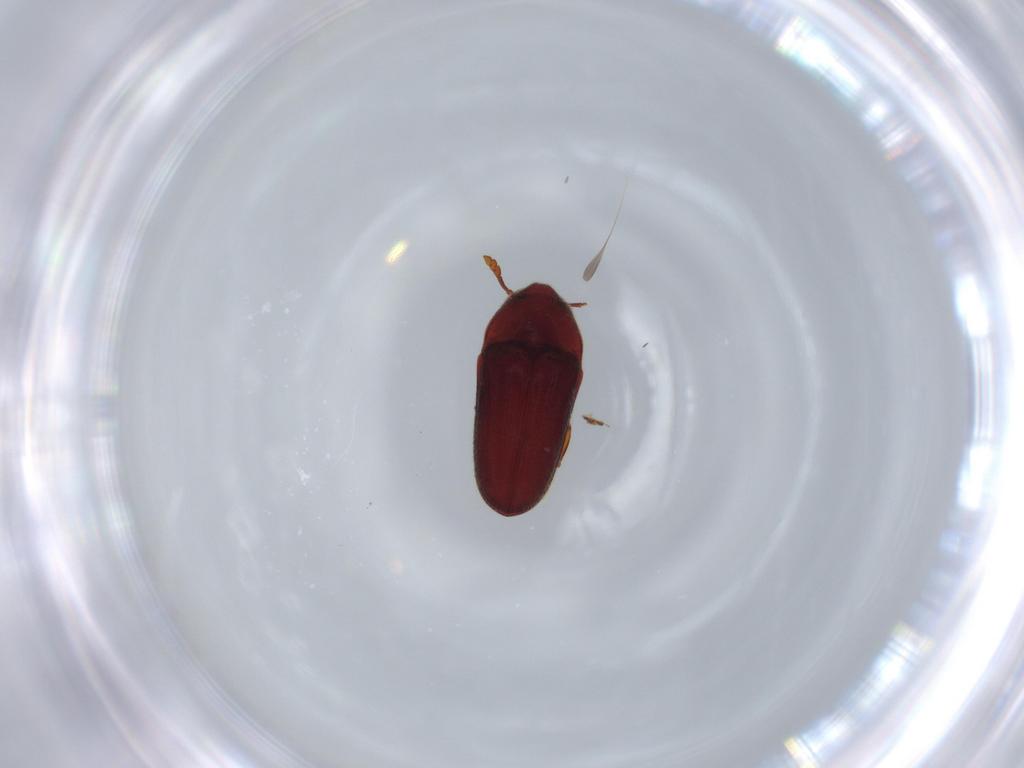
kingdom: Animalia
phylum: Arthropoda
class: Insecta
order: Coleoptera
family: Throscidae
